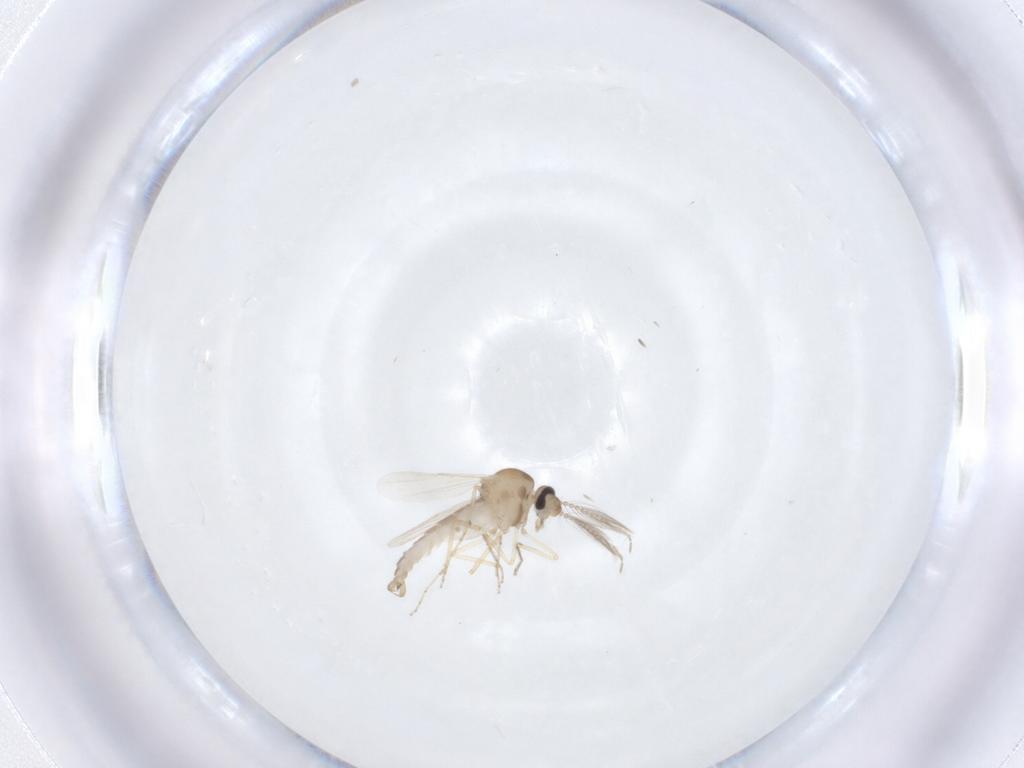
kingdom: Animalia
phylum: Arthropoda
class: Insecta
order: Diptera
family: Ceratopogonidae
